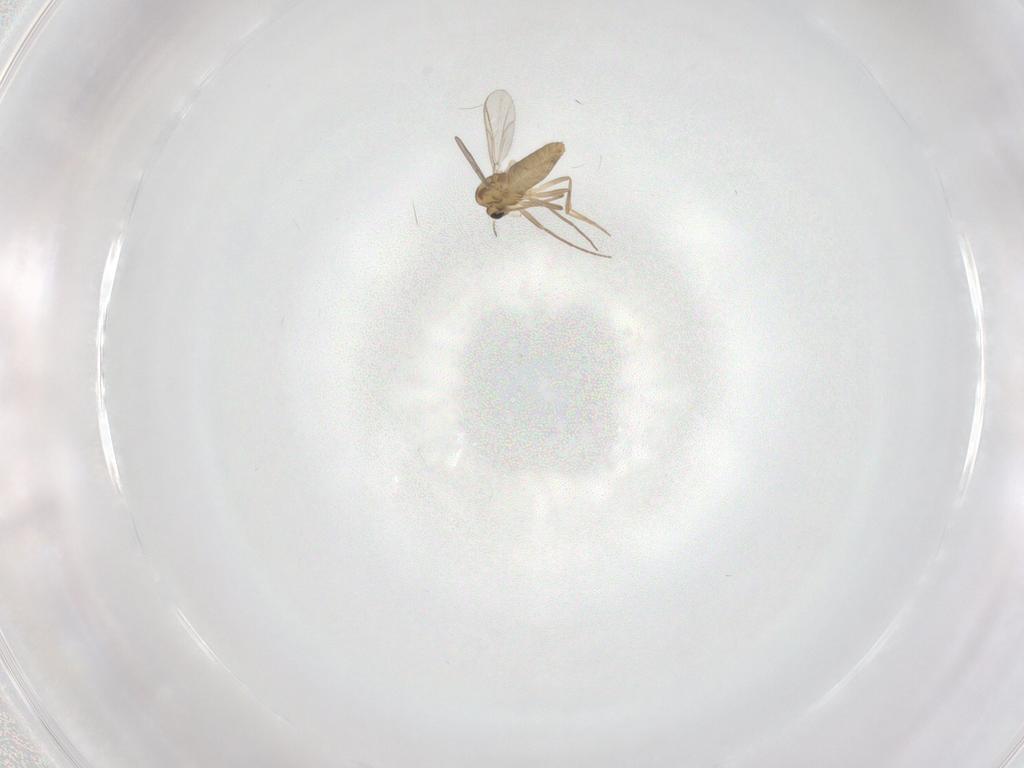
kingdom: Animalia
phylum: Arthropoda
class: Insecta
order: Diptera
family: Chironomidae
